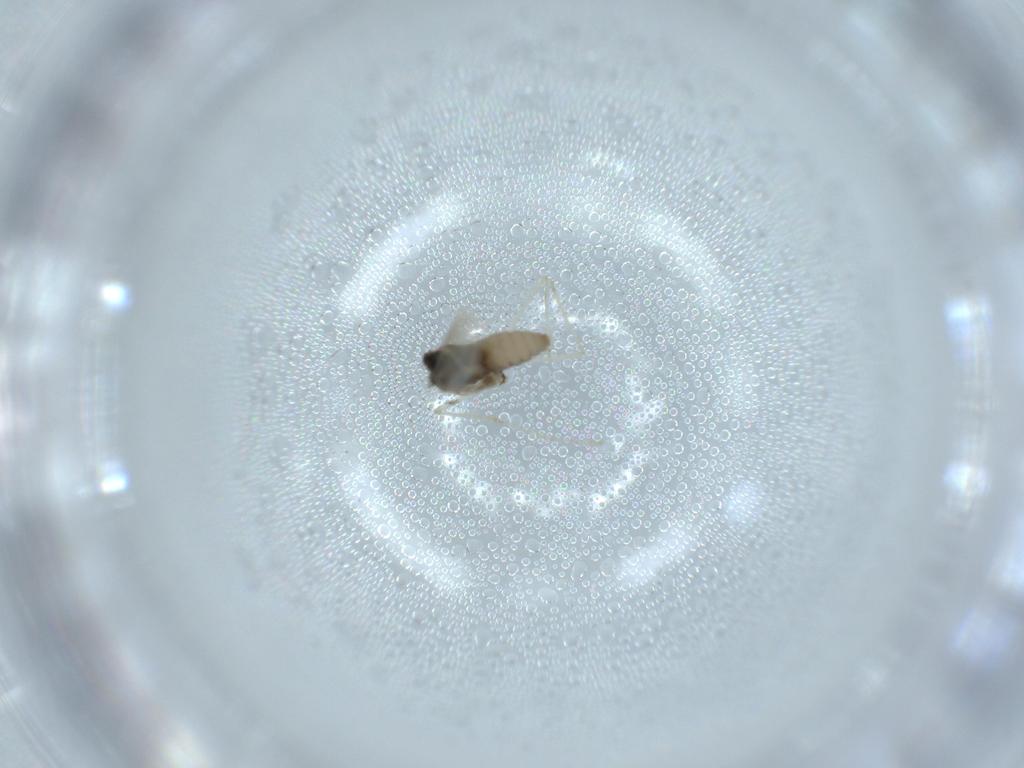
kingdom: Animalia
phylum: Arthropoda
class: Insecta
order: Diptera
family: Cecidomyiidae
